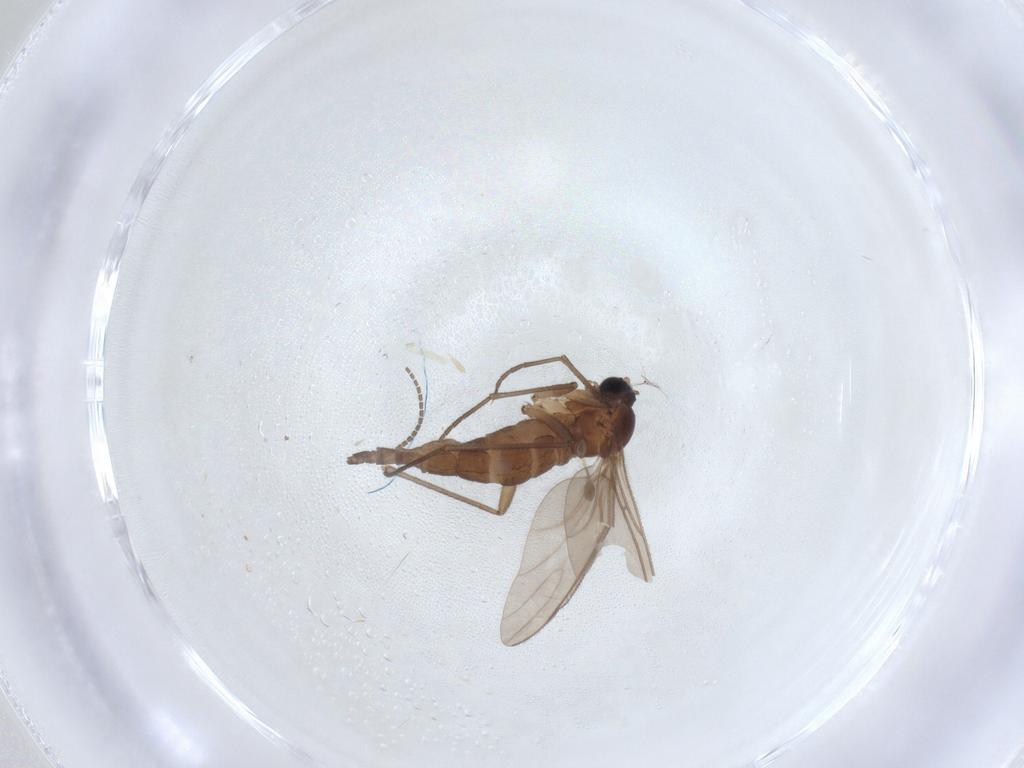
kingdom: Animalia
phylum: Arthropoda
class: Insecta
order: Diptera
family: Sciaridae
